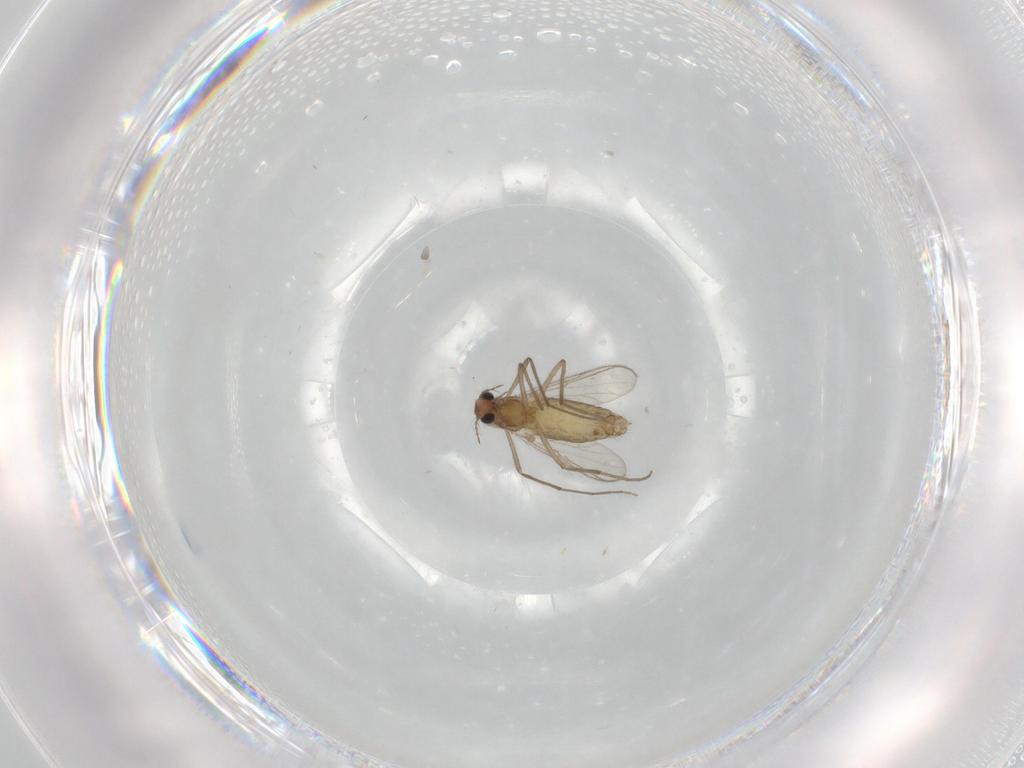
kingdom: Animalia
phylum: Arthropoda
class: Insecta
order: Diptera
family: Chironomidae
